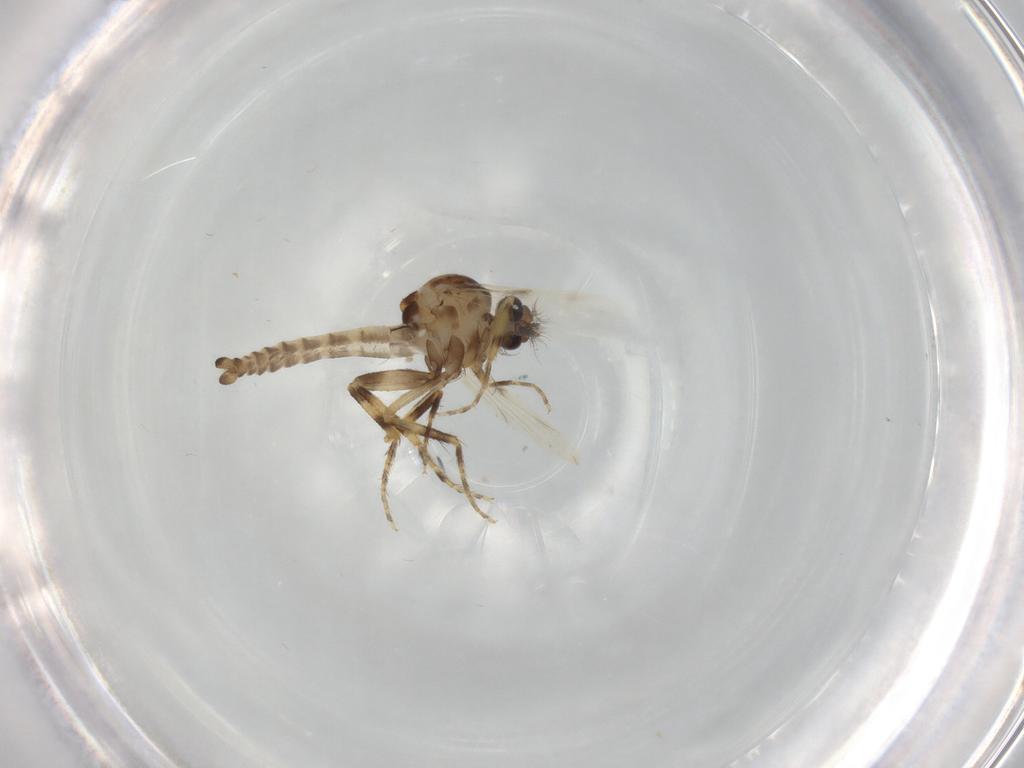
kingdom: Animalia
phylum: Arthropoda
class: Insecta
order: Diptera
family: Ceratopogonidae
